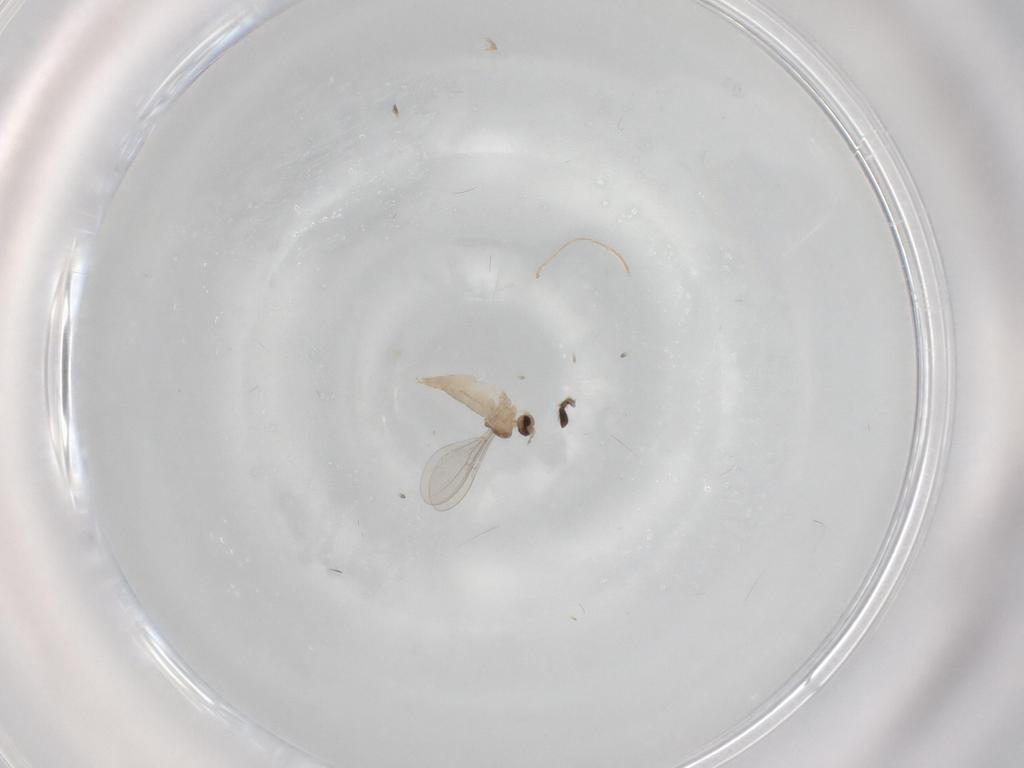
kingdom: Animalia
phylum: Arthropoda
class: Insecta
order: Diptera
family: Cecidomyiidae
